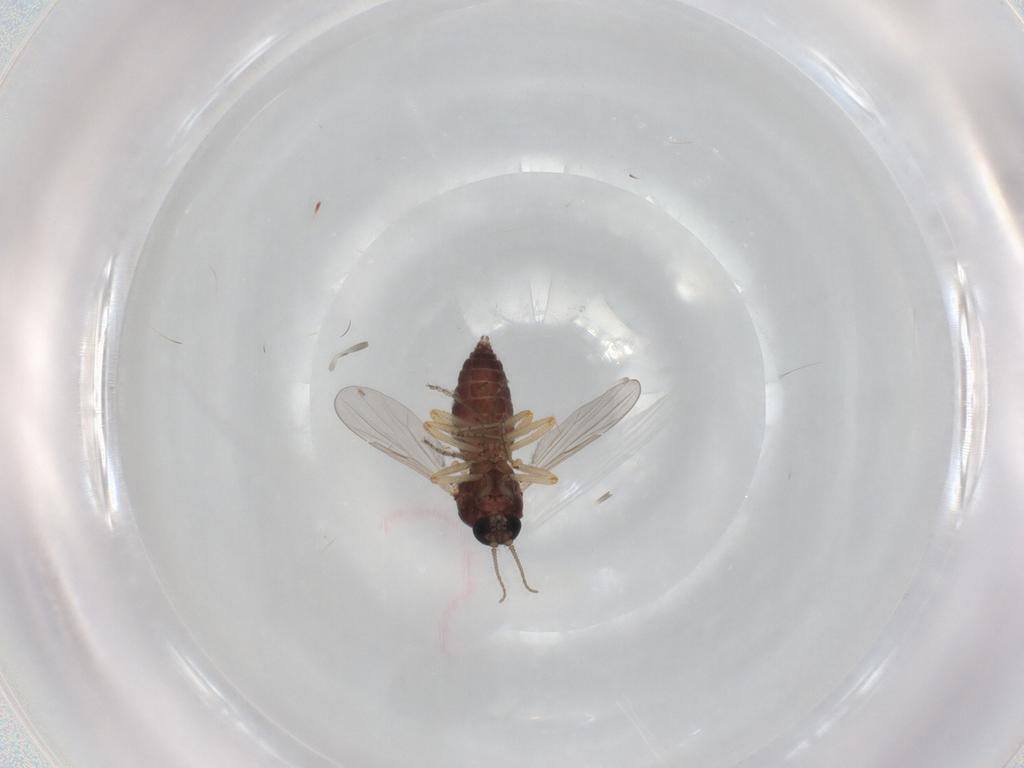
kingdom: Animalia
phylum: Arthropoda
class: Insecta
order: Diptera
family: Ceratopogonidae
